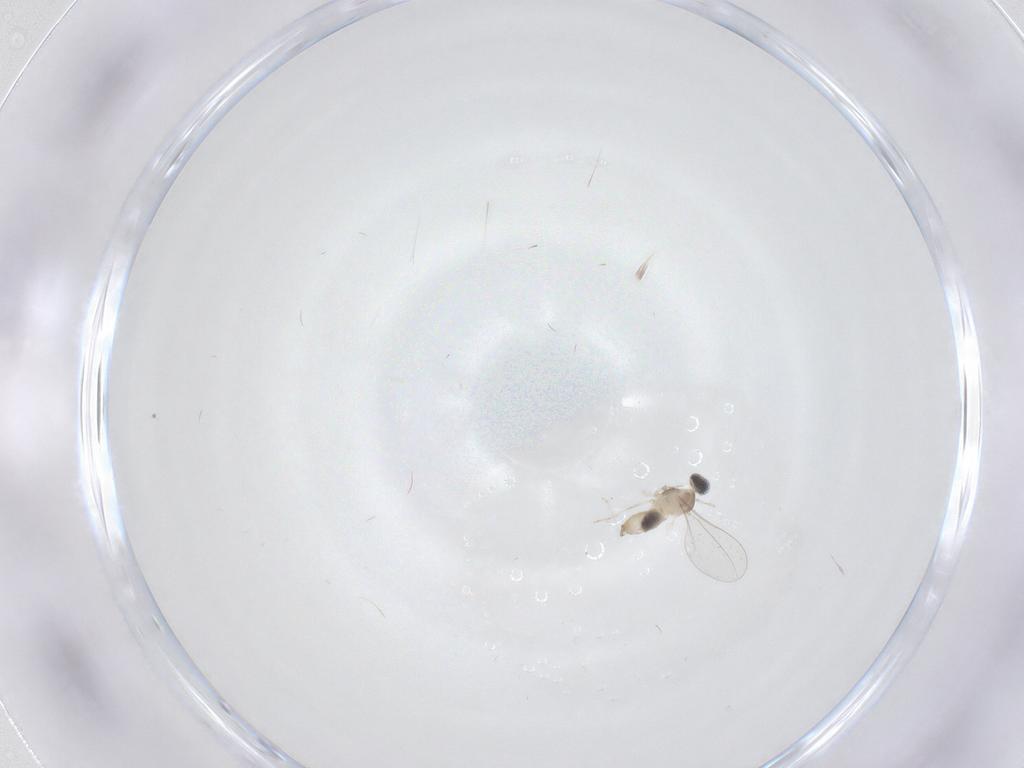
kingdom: Animalia
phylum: Arthropoda
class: Insecta
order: Diptera
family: Cecidomyiidae
